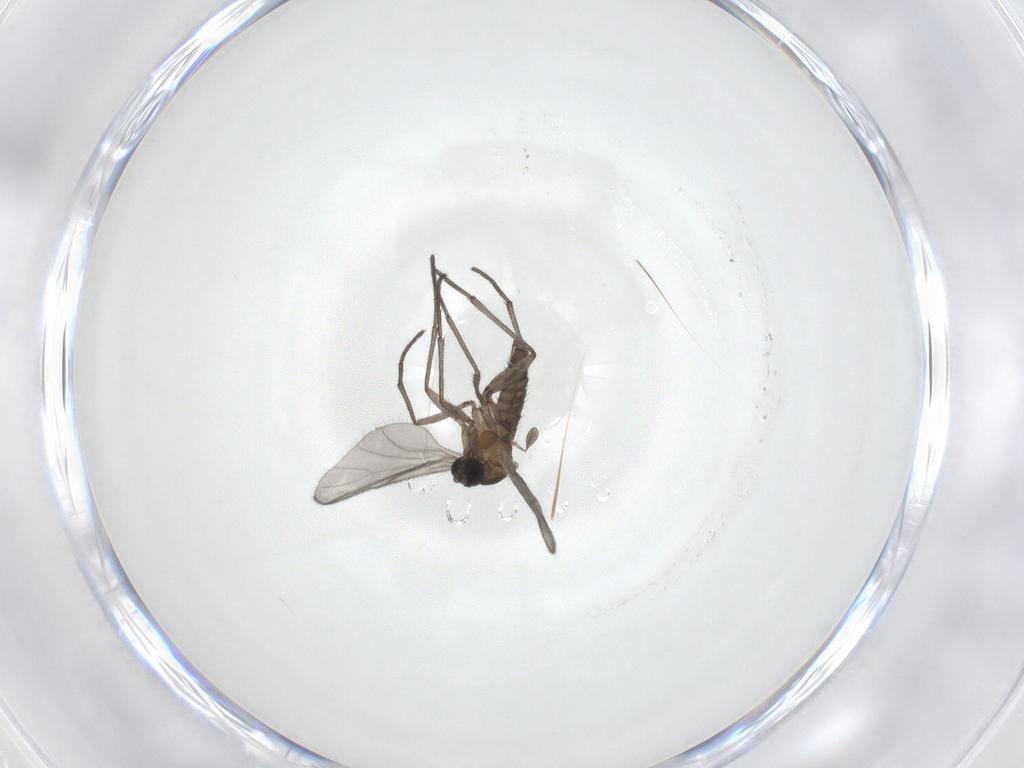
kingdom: Animalia
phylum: Arthropoda
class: Insecta
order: Diptera
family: Sciaridae
